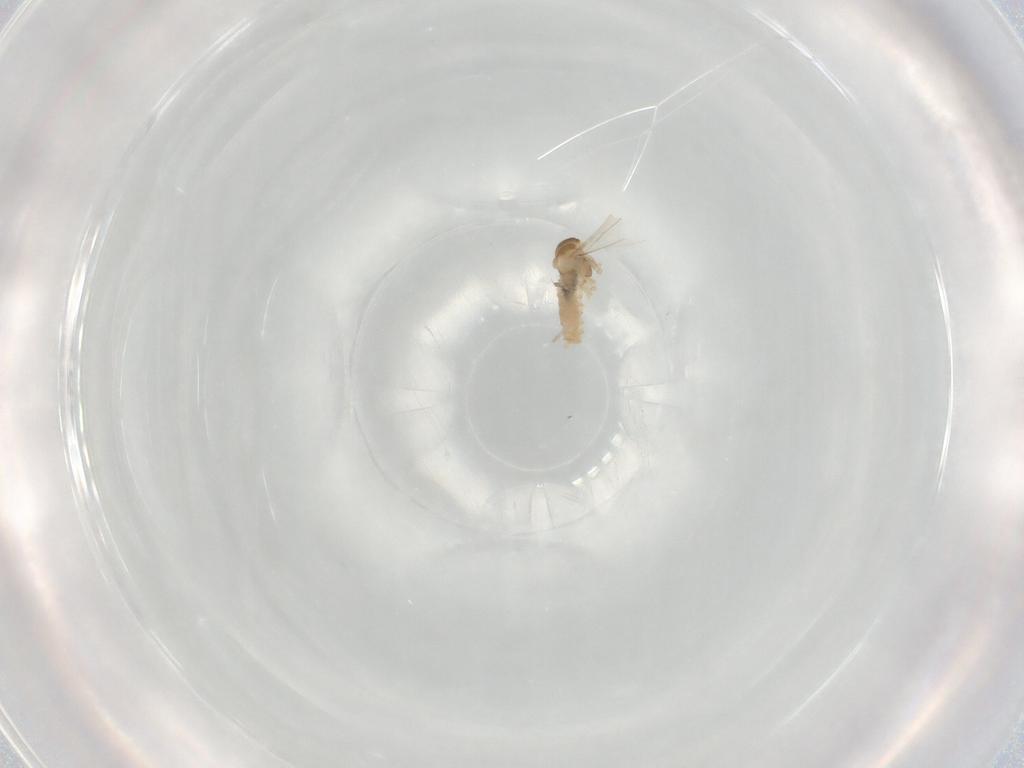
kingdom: Animalia
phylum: Arthropoda
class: Insecta
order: Diptera
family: Cecidomyiidae
